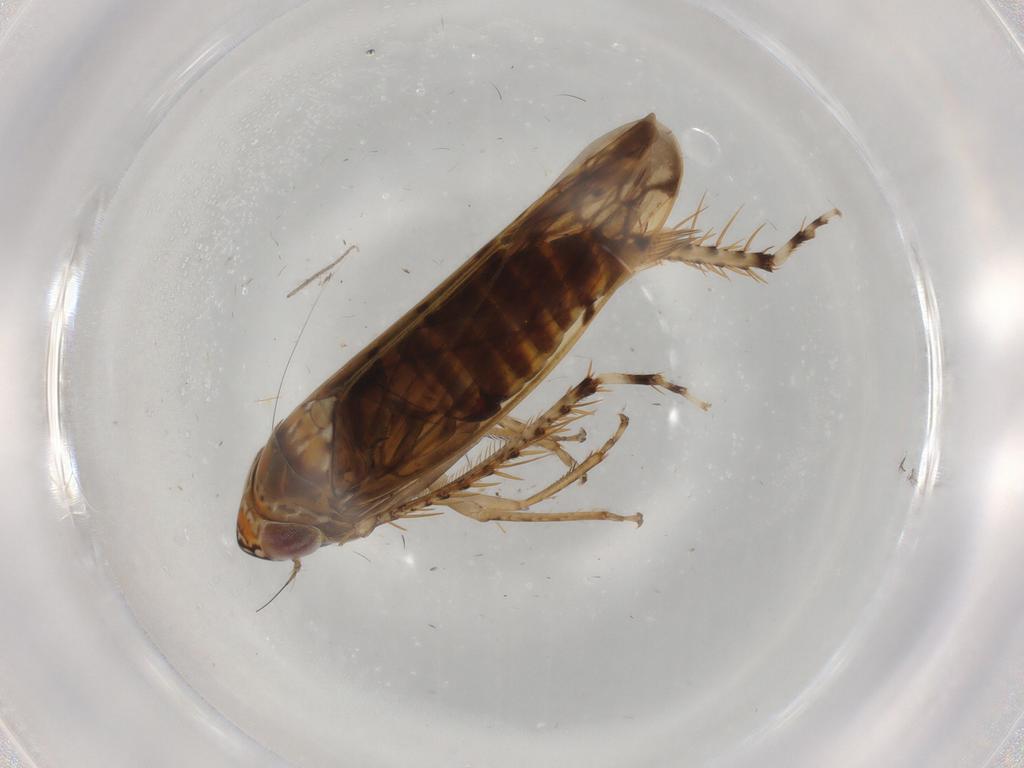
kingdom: Animalia
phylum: Arthropoda
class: Insecta
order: Hemiptera
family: Cicadellidae
